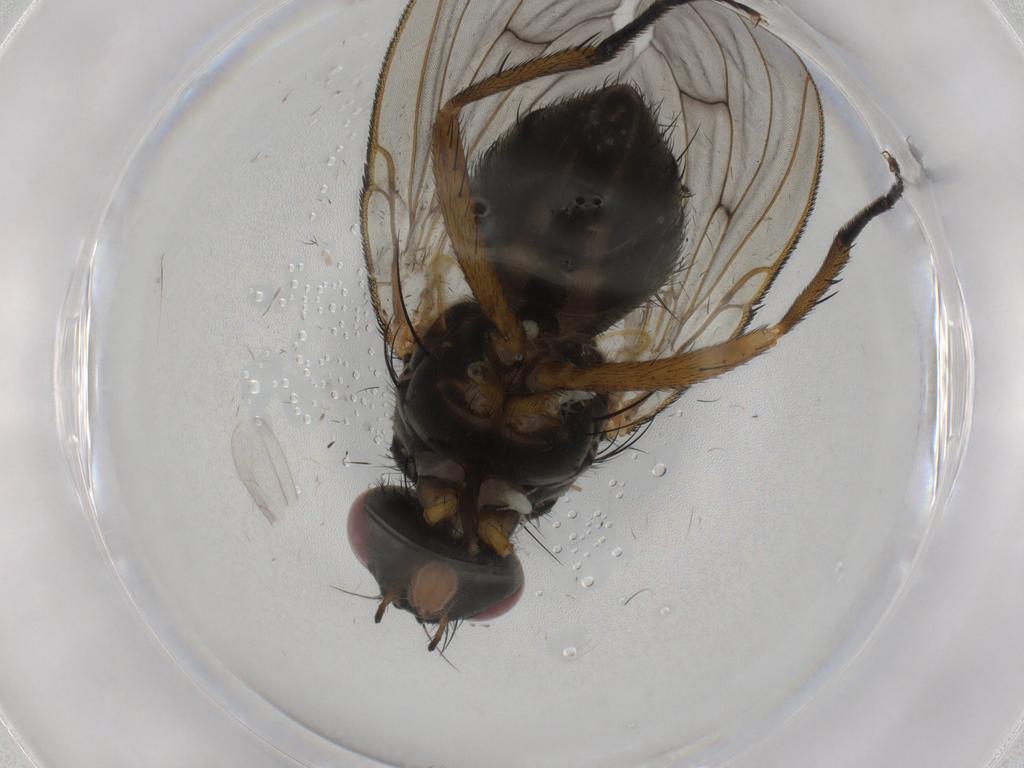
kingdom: Animalia
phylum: Arthropoda
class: Insecta
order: Diptera
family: Muscidae
